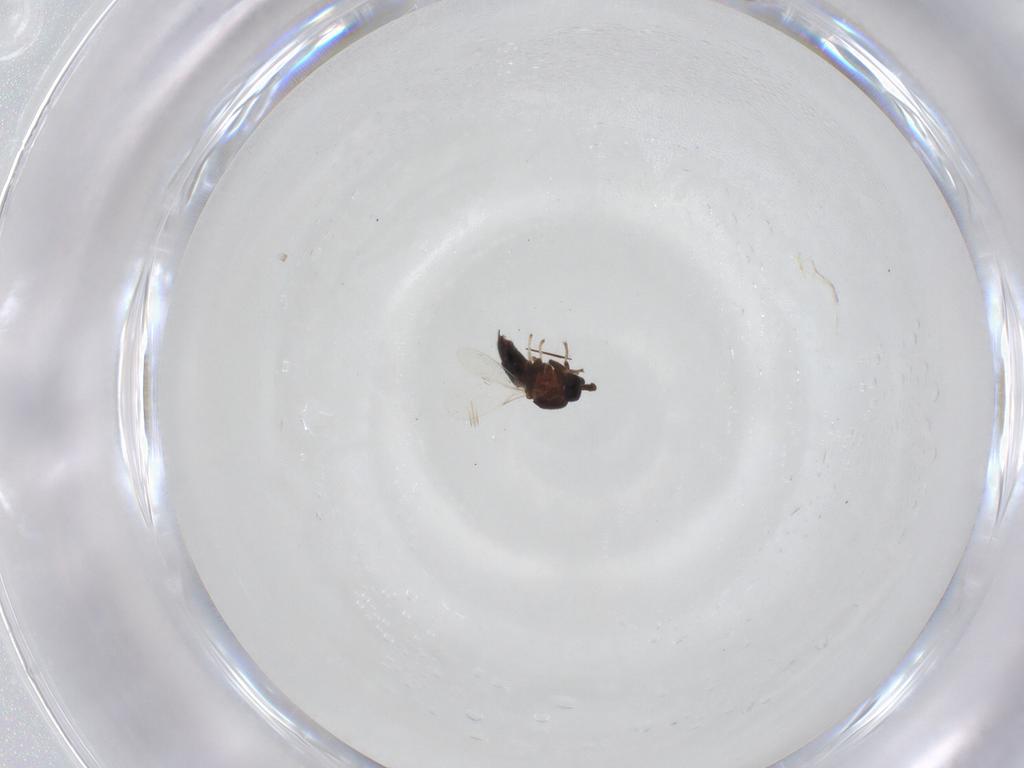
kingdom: Animalia
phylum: Arthropoda
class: Insecta
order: Diptera
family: Scatopsidae
